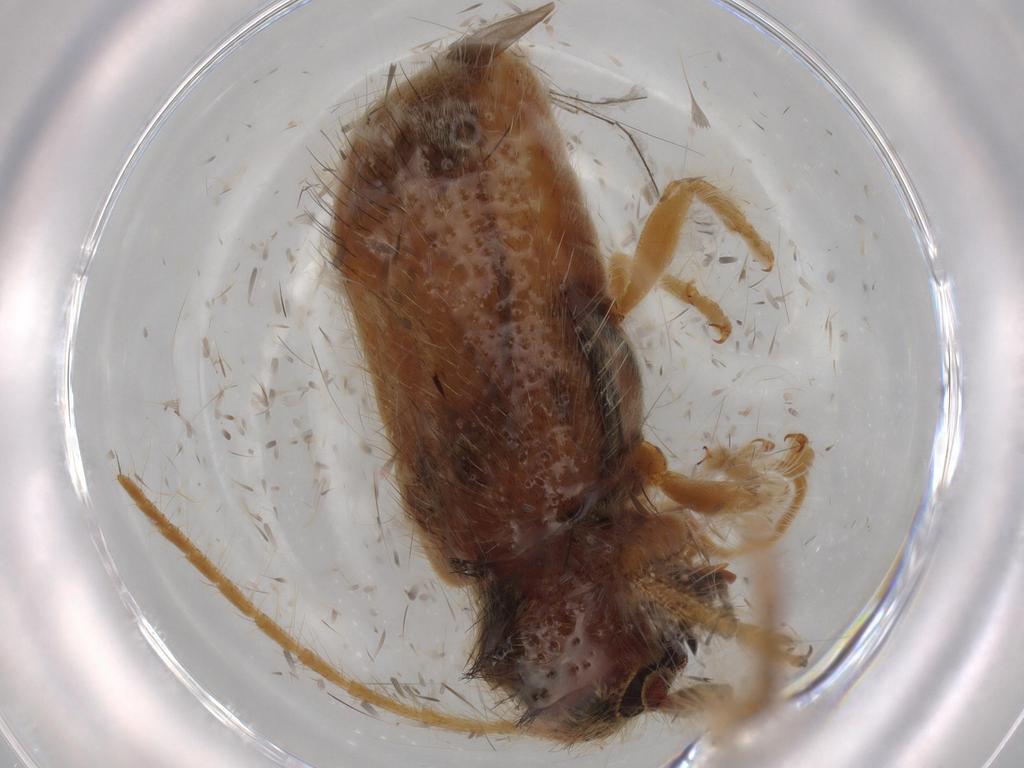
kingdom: Animalia
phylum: Arthropoda
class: Insecta
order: Coleoptera
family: Cerambycidae
